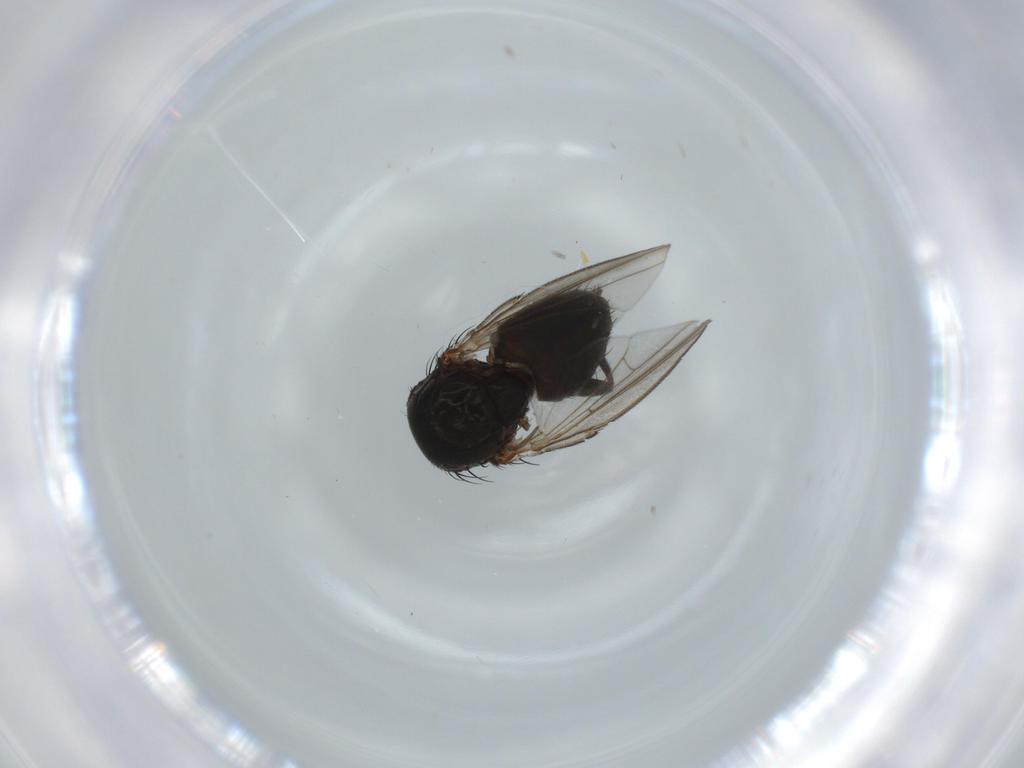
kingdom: Animalia
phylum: Arthropoda
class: Insecta
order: Diptera
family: Milichiidae
